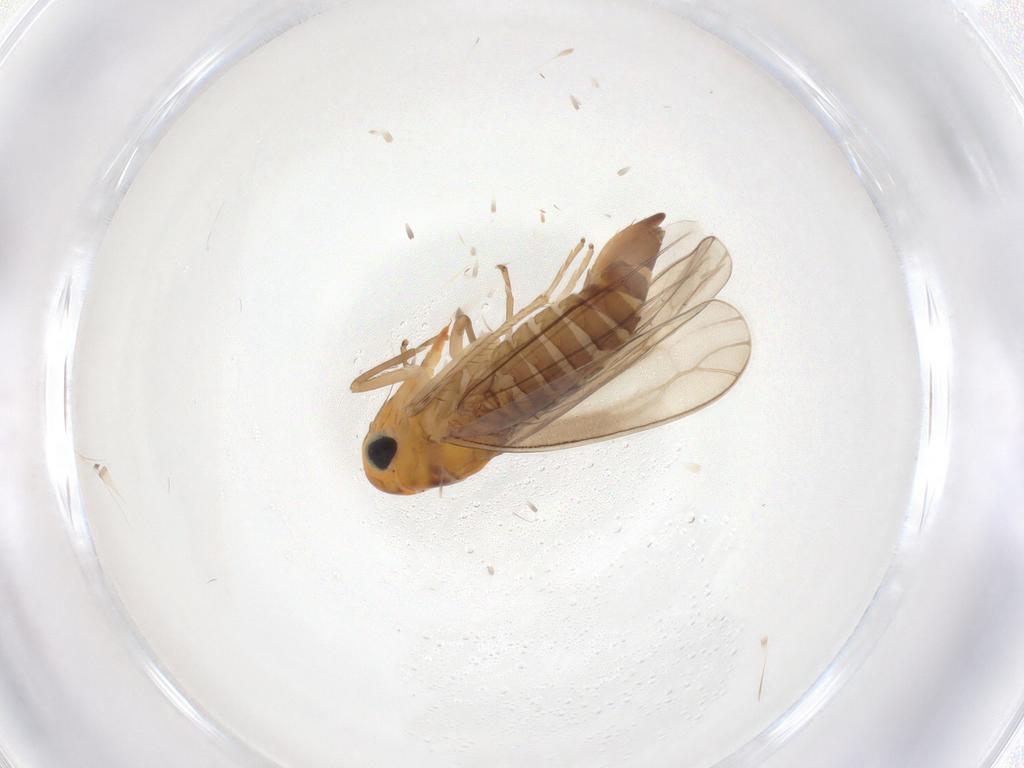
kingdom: Animalia
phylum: Arthropoda
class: Insecta
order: Hemiptera
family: Cicadellidae
